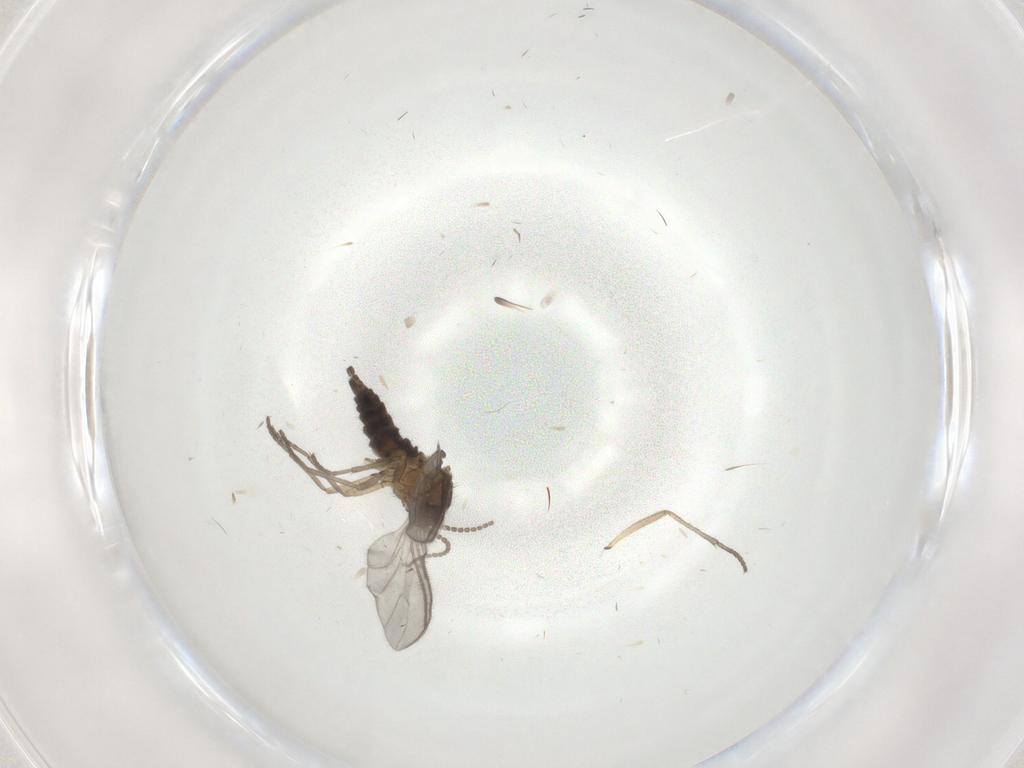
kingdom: Animalia
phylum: Arthropoda
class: Insecta
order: Diptera
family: Sciaridae
